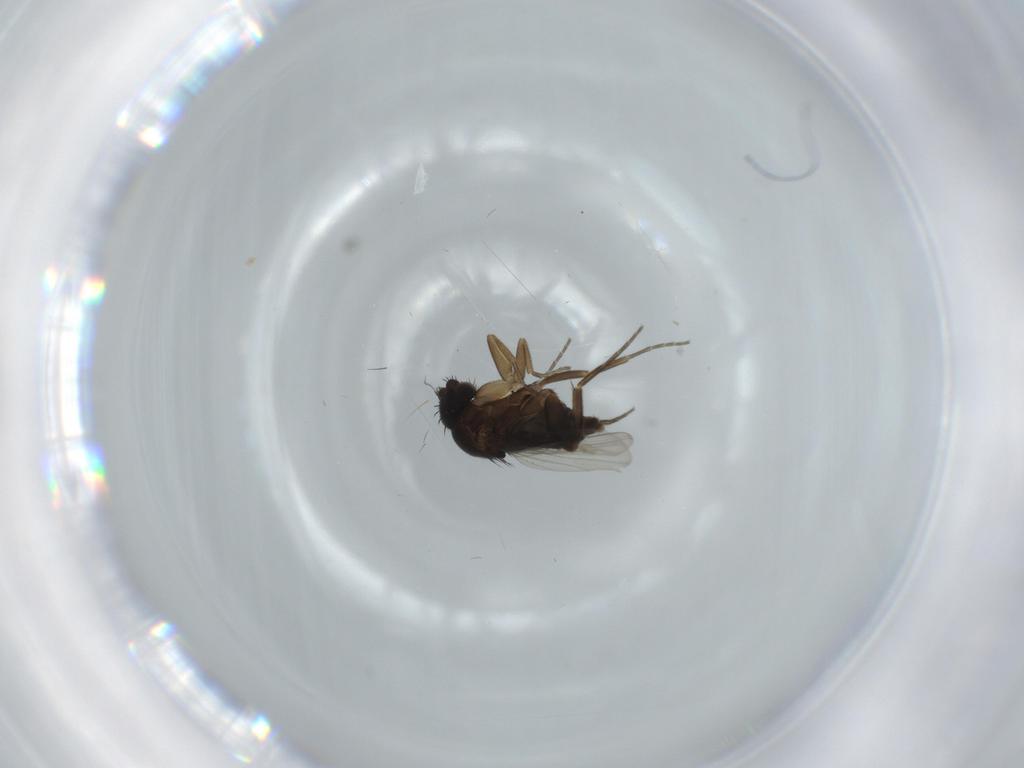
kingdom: Animalia
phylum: Arthropoda
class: Insecta
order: Diptera
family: Phoridae
